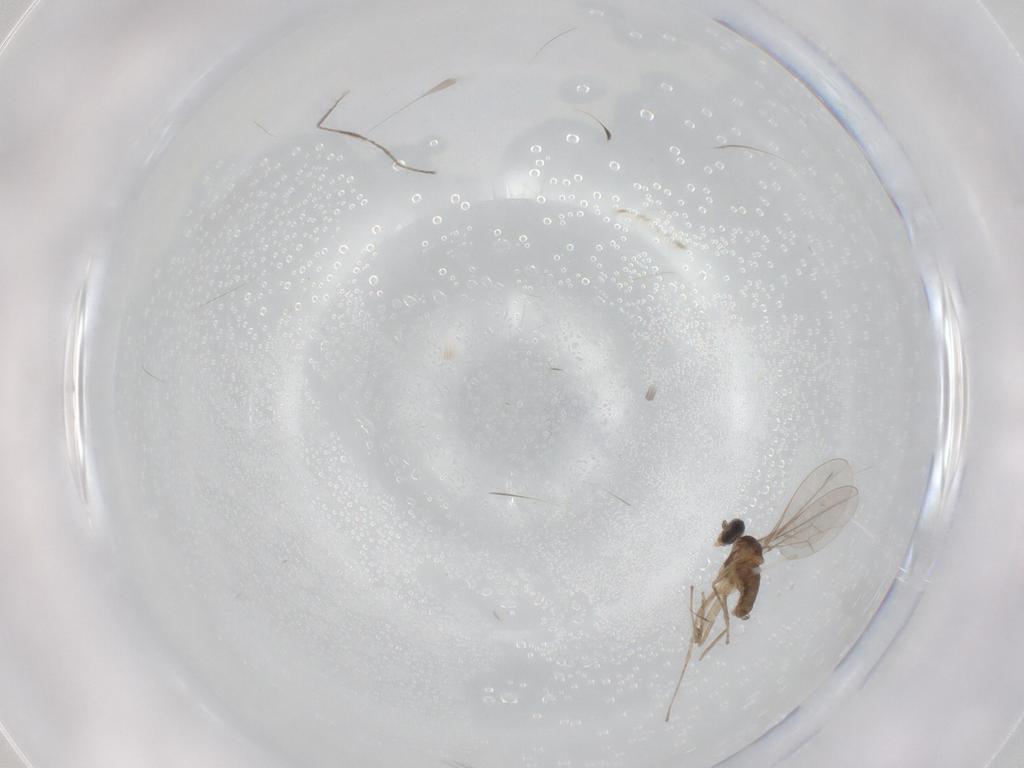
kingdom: Animalia
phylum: Arthropoda
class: Insecta
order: Diptera
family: Cecidomyiidae
